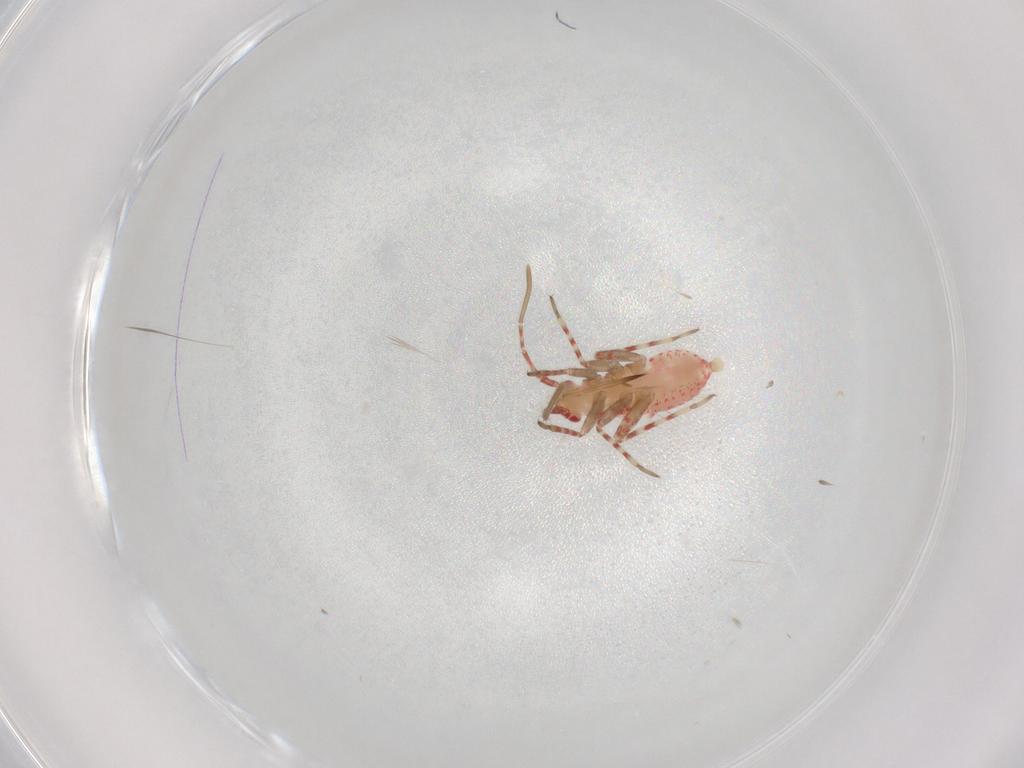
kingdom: Animalia
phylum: Arthropoda
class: Insecta
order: Hemiptera
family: Miridae
